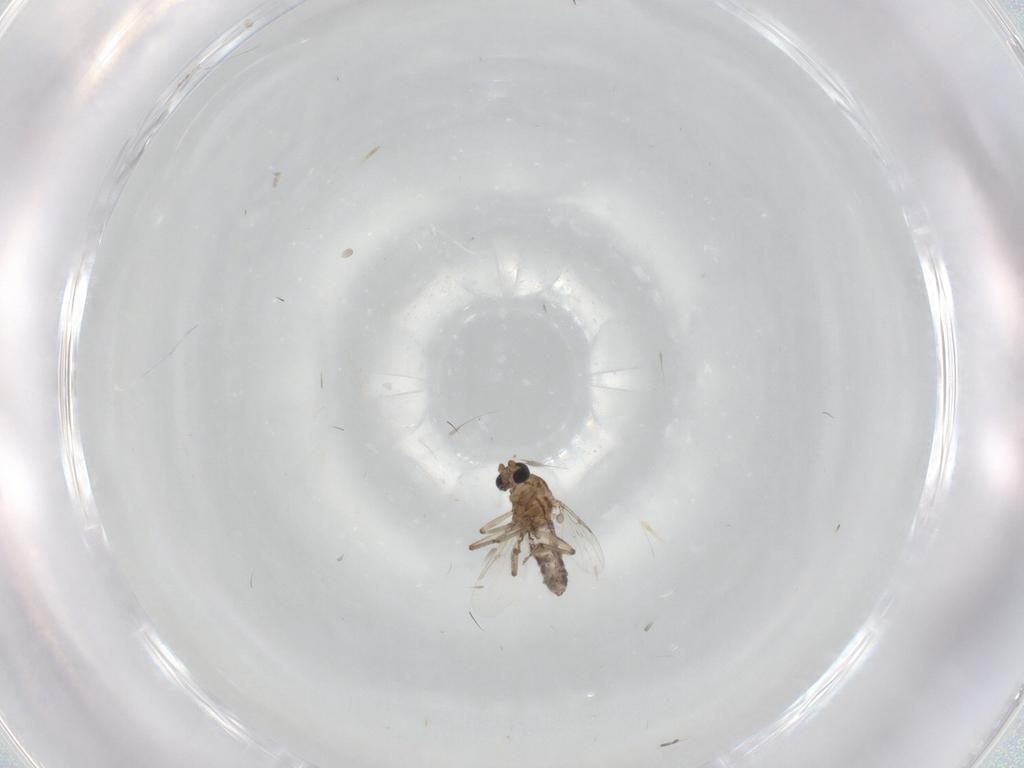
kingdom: Animalia
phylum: Arthropoda
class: Insecta
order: Diptera
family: Ceratopogonidae
